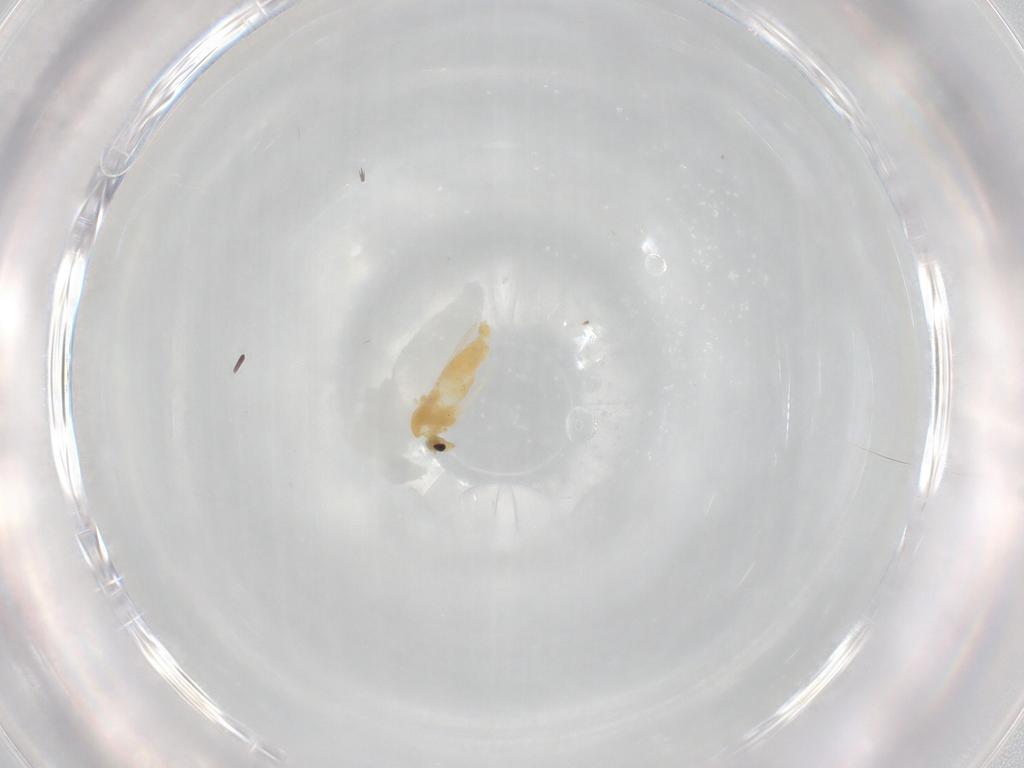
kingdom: Animalia
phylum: Arthropoda
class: Insecta
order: Diptera
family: Chironomidae
